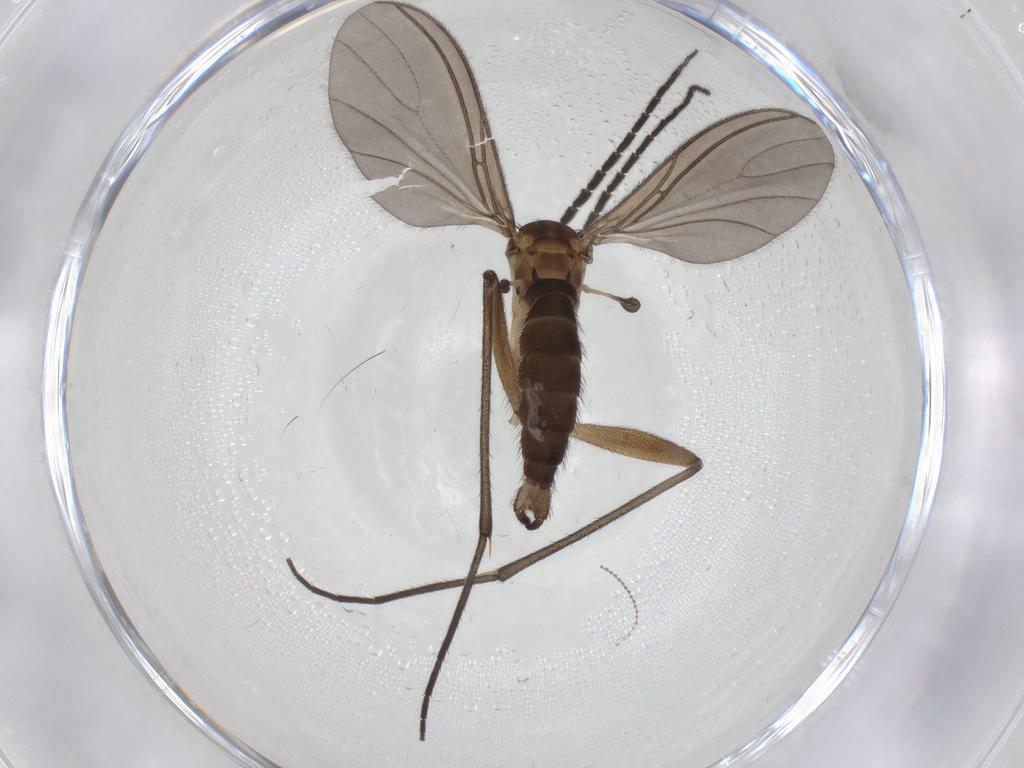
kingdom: Animalia
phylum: Arthropoda
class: Insecta
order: Diptera
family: Sciaridae
